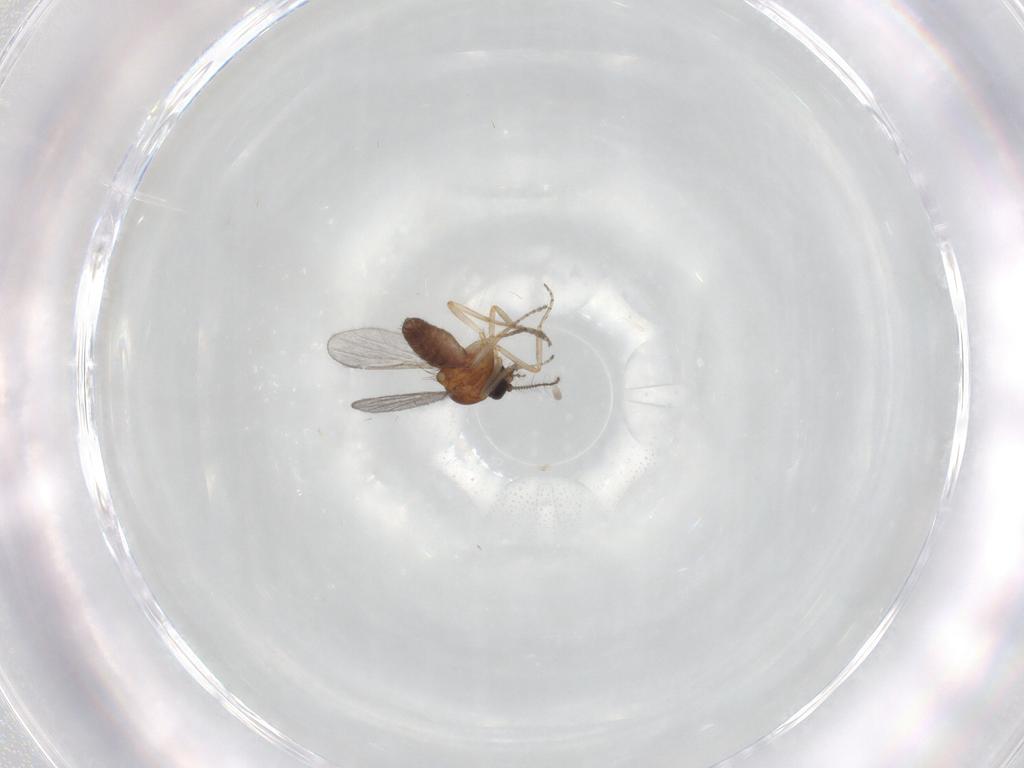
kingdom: Animalia
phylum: Arthropoda
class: Insecta
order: Diptera
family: Ceratopogonidae
